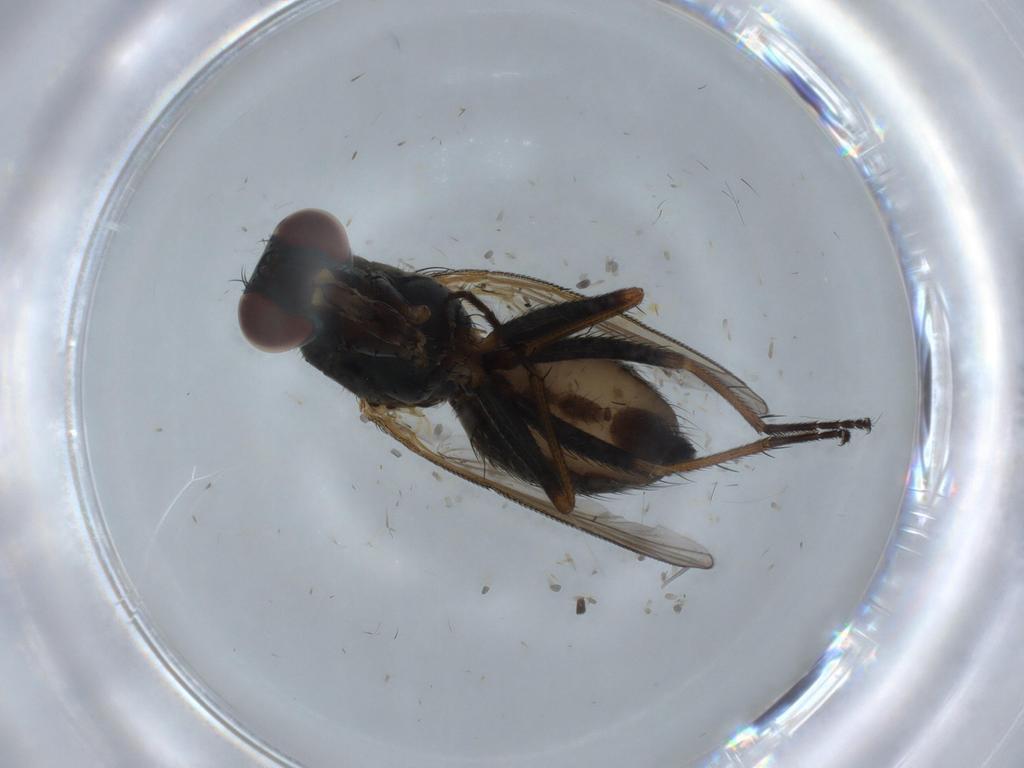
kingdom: Animalia
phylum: Arthropoda
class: Insecta
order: Diptera
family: Muscidae
